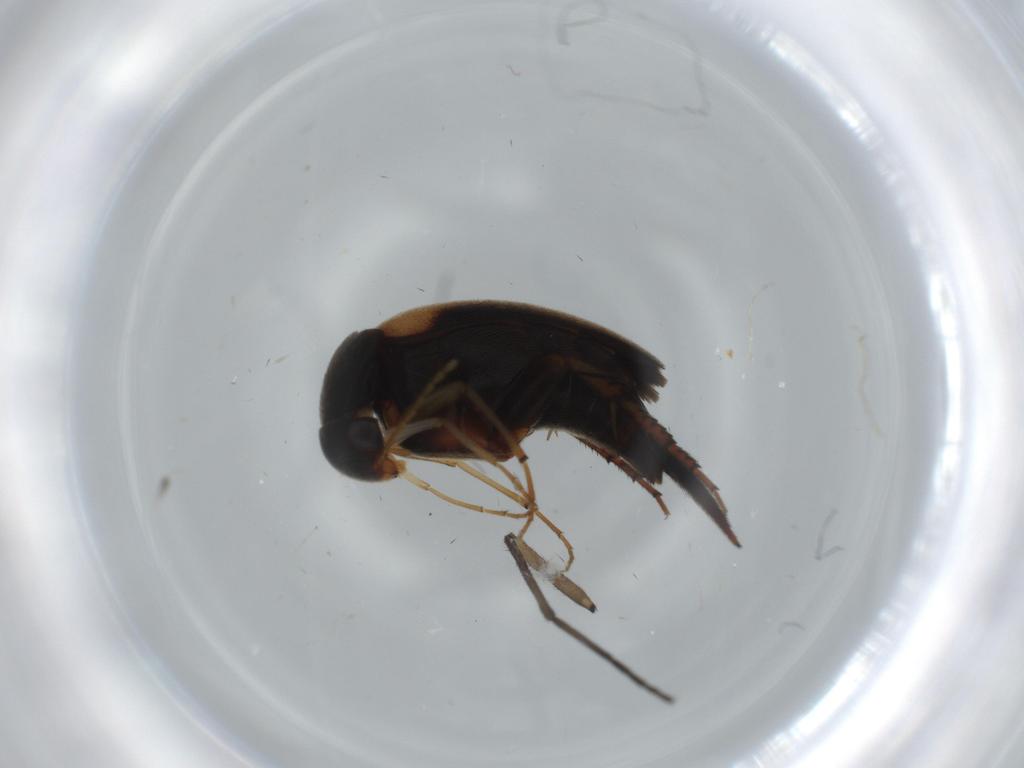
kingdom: Animalia
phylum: Arthropoda
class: Insecta
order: Coleoptera
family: Mordellidae
